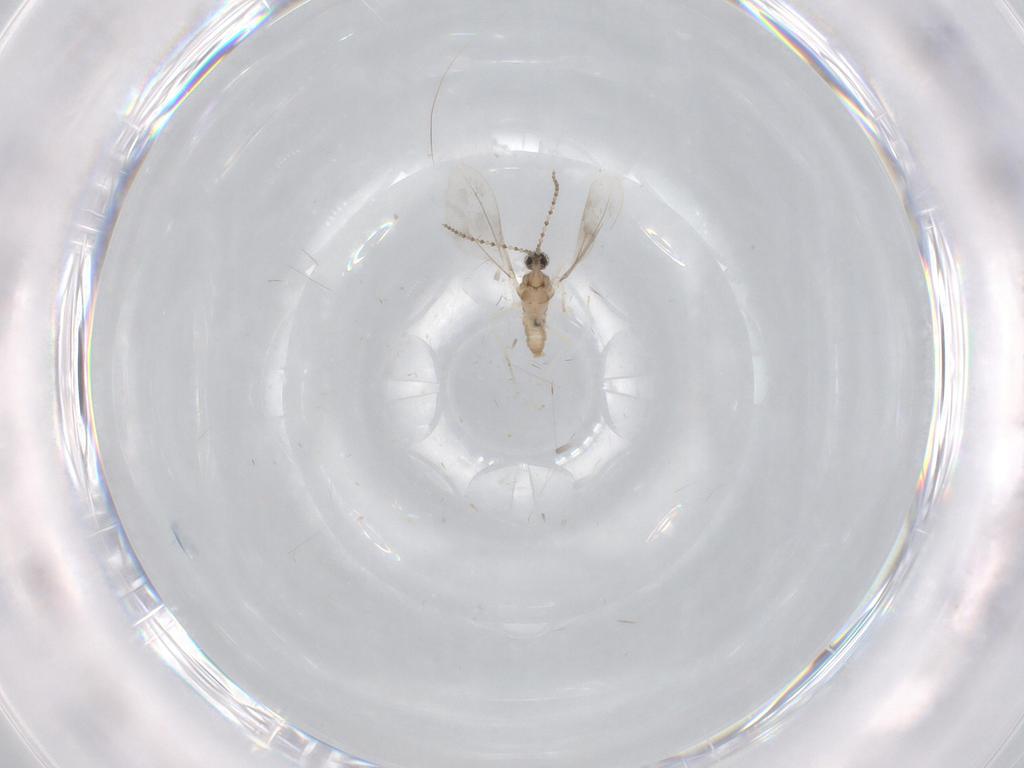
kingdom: Animalia
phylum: Arthropoda
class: Insecta
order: Diptera
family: Cecidomyiidae
